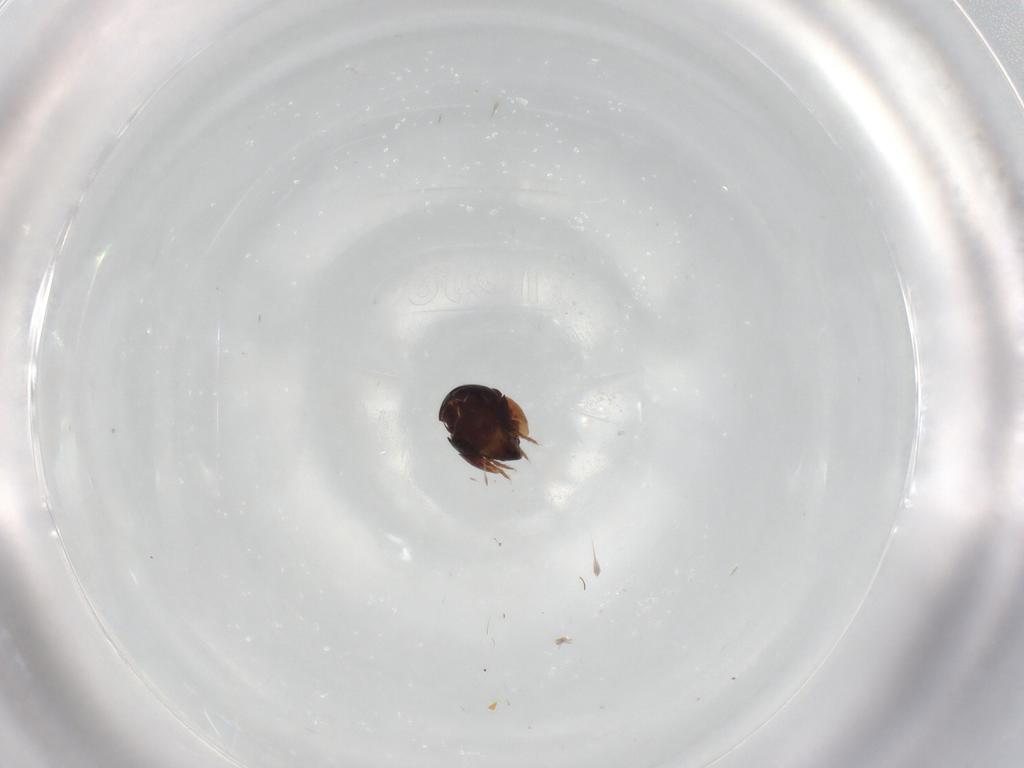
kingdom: Animalia
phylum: Arthropoda
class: Arachnida
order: Sarcoptiformes
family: Ceratozetidae
